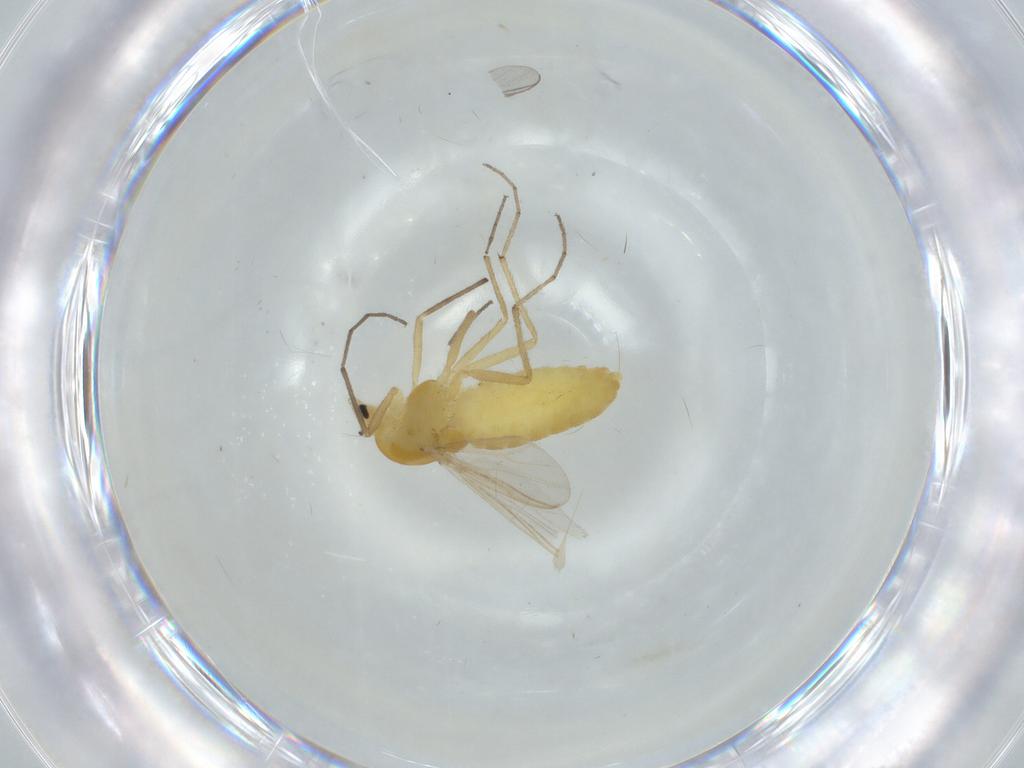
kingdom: Animalia
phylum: Arthropoda
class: Insecta
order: Diptera
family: Chironomidae
